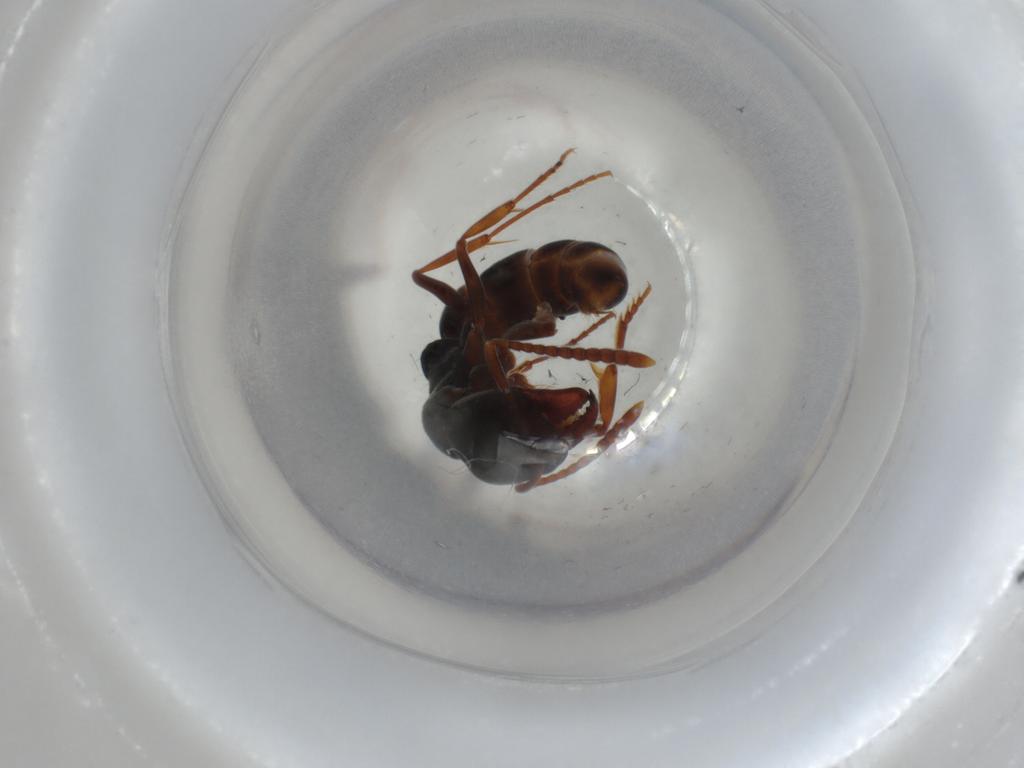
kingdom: Animalia
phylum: Arthropoda
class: Insecta
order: Hymenoptera
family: Formicidae
